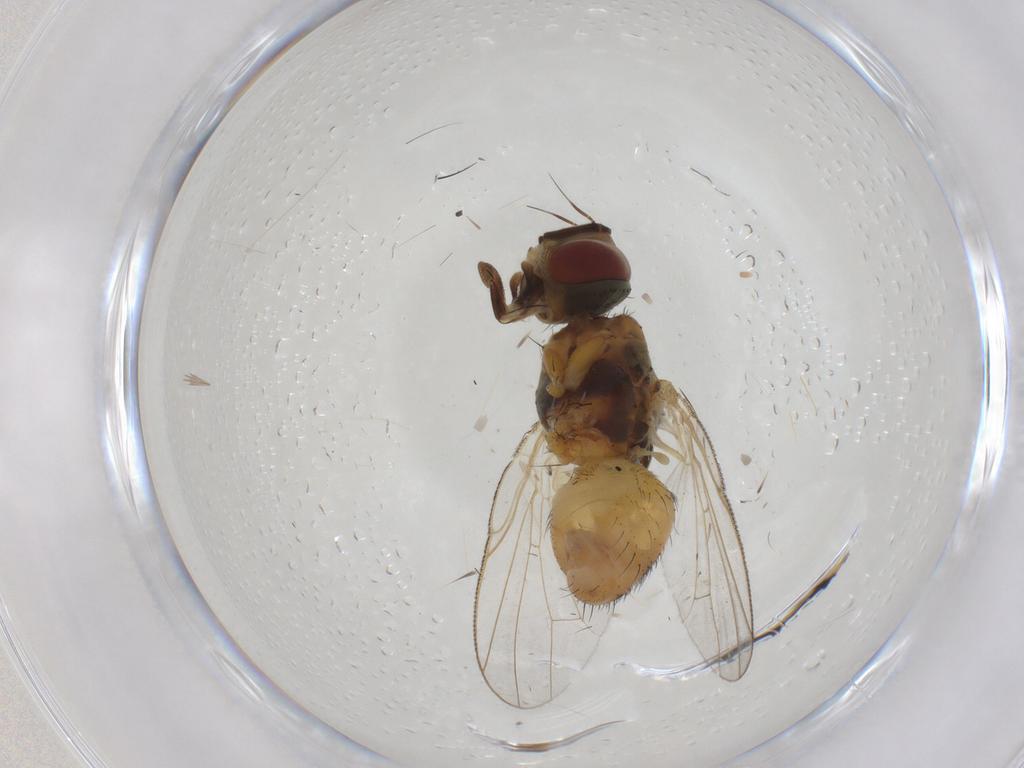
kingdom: Animalia
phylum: Arthropoda
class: Insecta
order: Diptera
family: Muscidae
